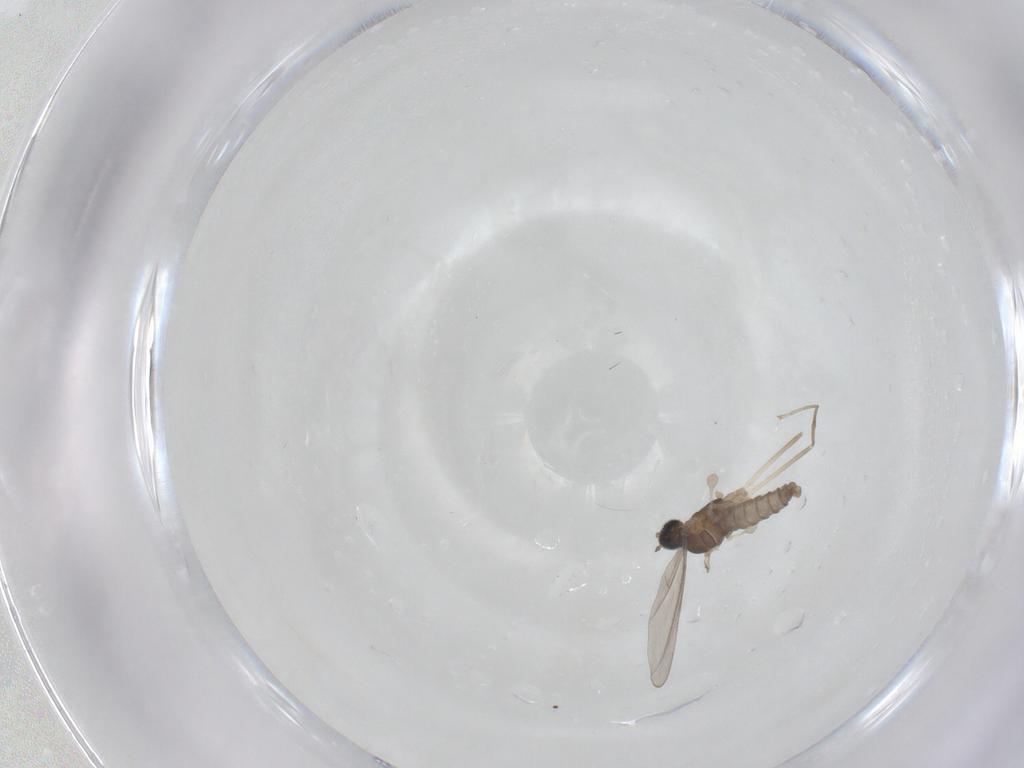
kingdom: Animalia
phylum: Arthropoda
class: Insecta
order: Diptera
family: Cecidomyiidae
